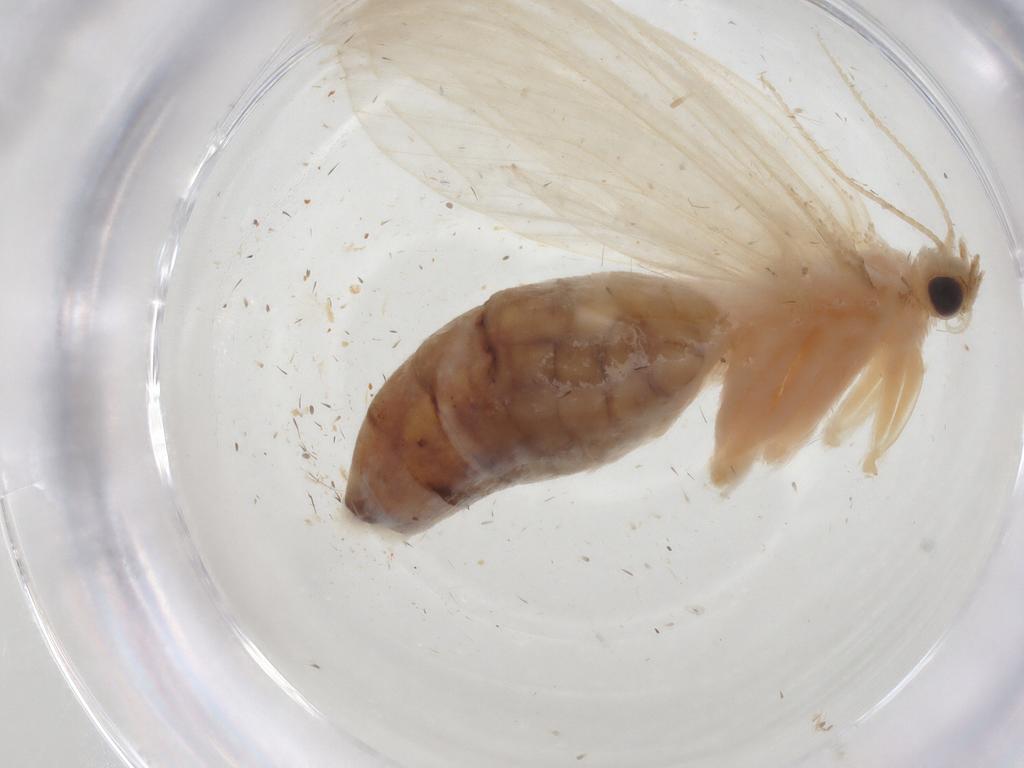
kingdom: Animalia
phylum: Arthropoda
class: Insecta
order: Lepidoptera
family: Crambidae
